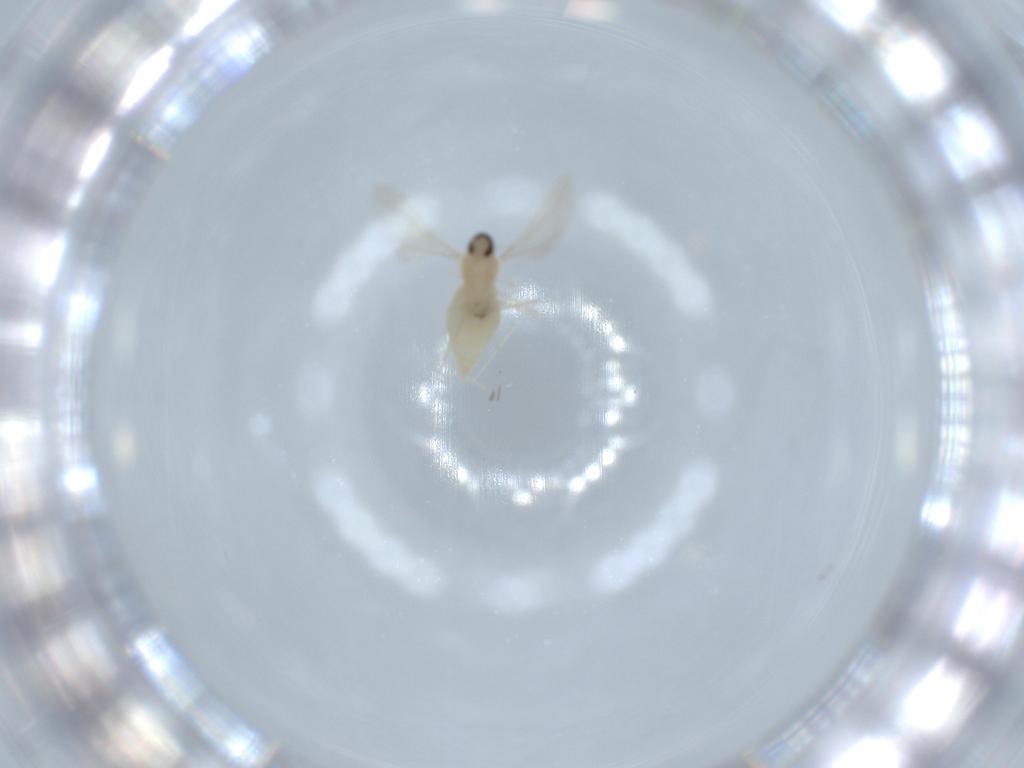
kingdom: Animalia
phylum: Arthropoda
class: Insecta
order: Diptera
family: Cecidomyiidae
